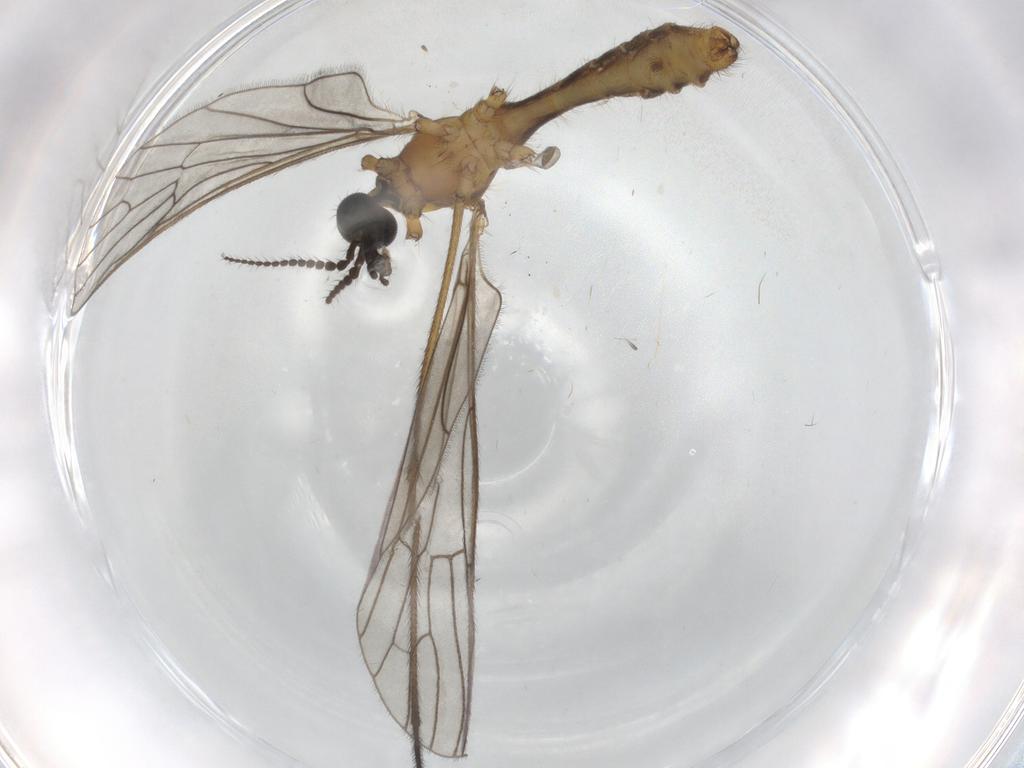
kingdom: Animalia
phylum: Arthropoda
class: Insecta
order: Diptera
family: Limoniidae
